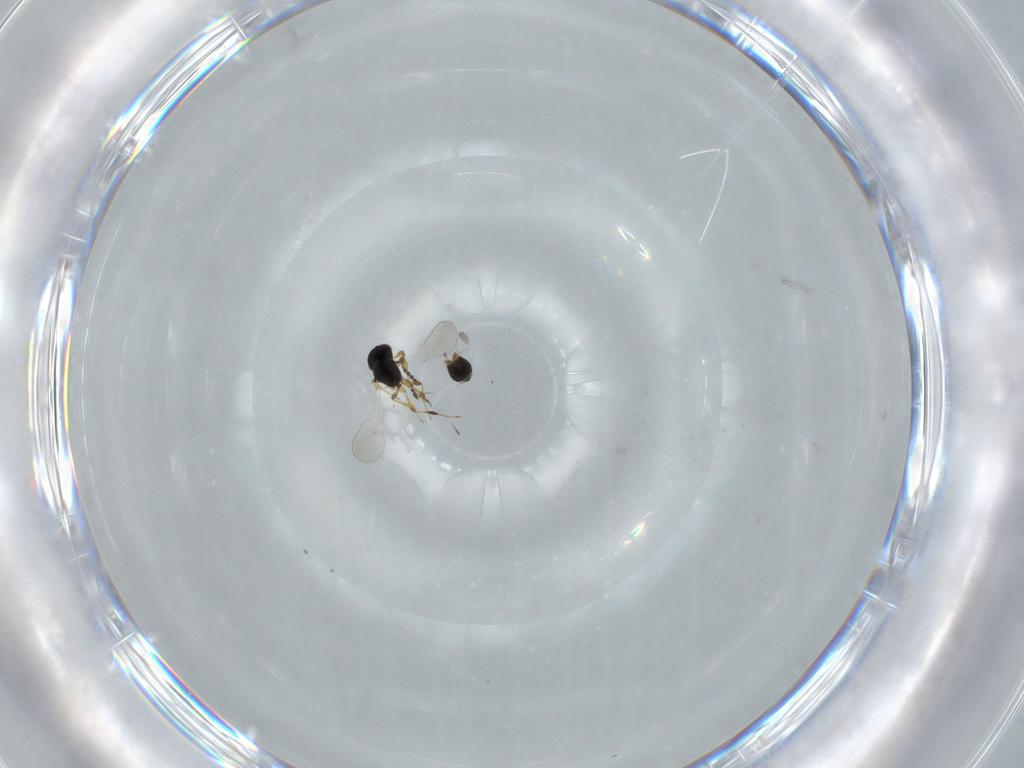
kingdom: Animalia
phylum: Arthropoda
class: Insecta
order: Hymenoptera
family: Platygastridae
